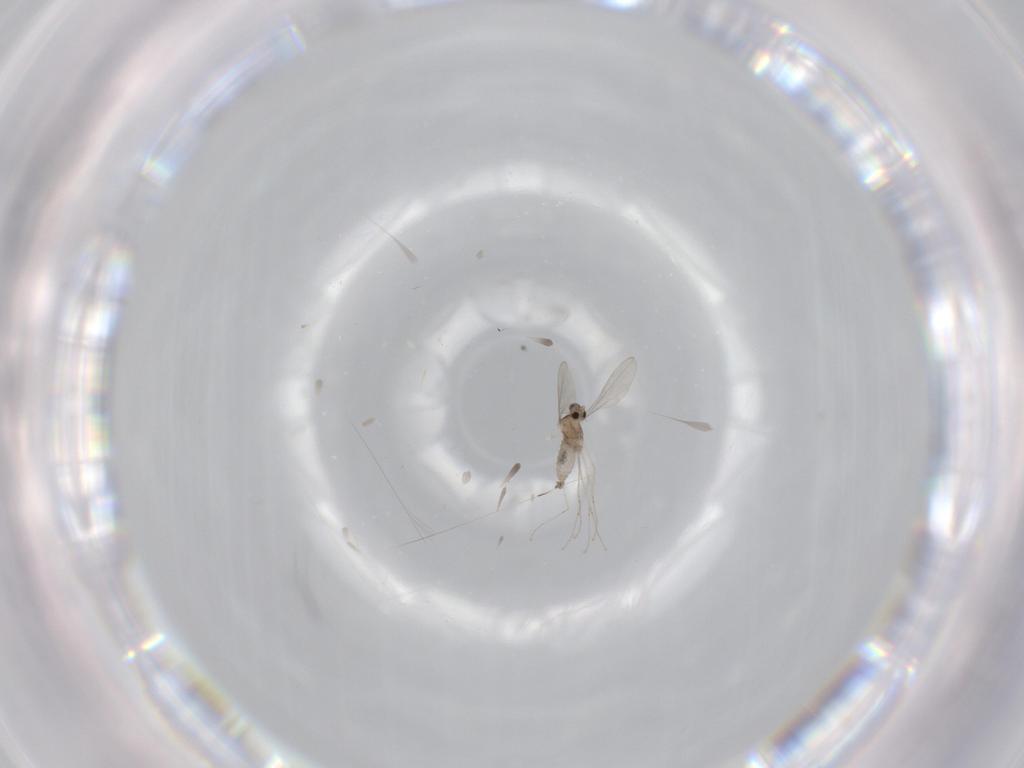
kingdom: Animalia
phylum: Arthropoda
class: Insecta
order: Diptera
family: Cecidomyiidae
